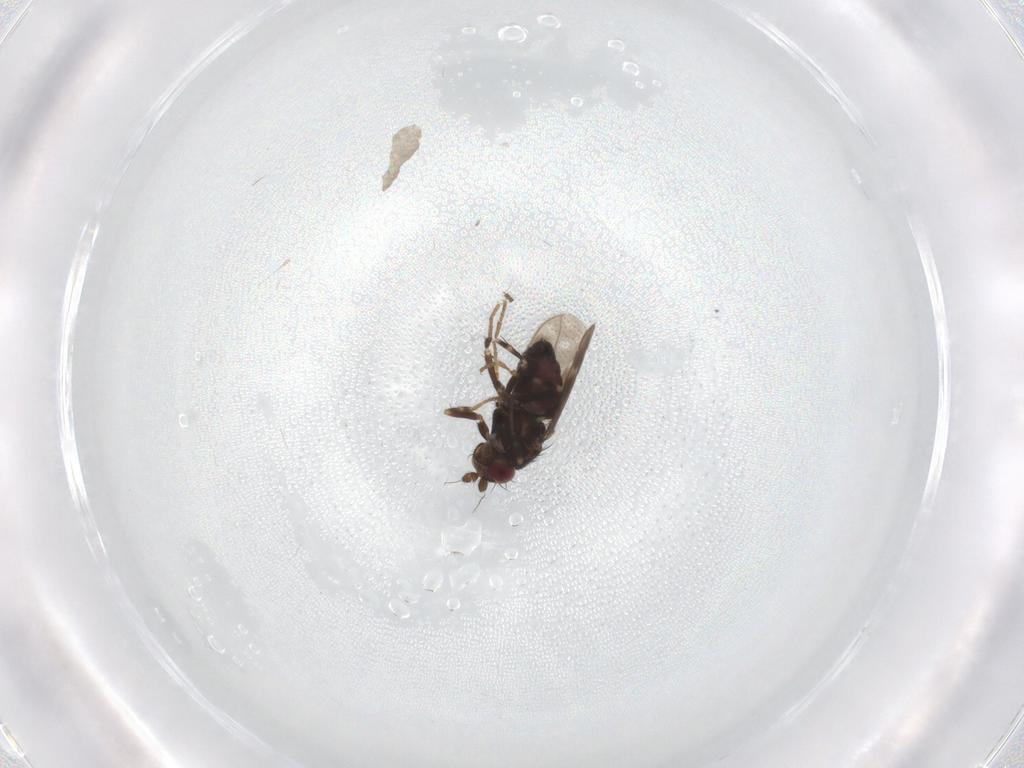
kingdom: Animalia
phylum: Arthropoda
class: Insecta
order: Diptera
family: Sphaeroceridae
